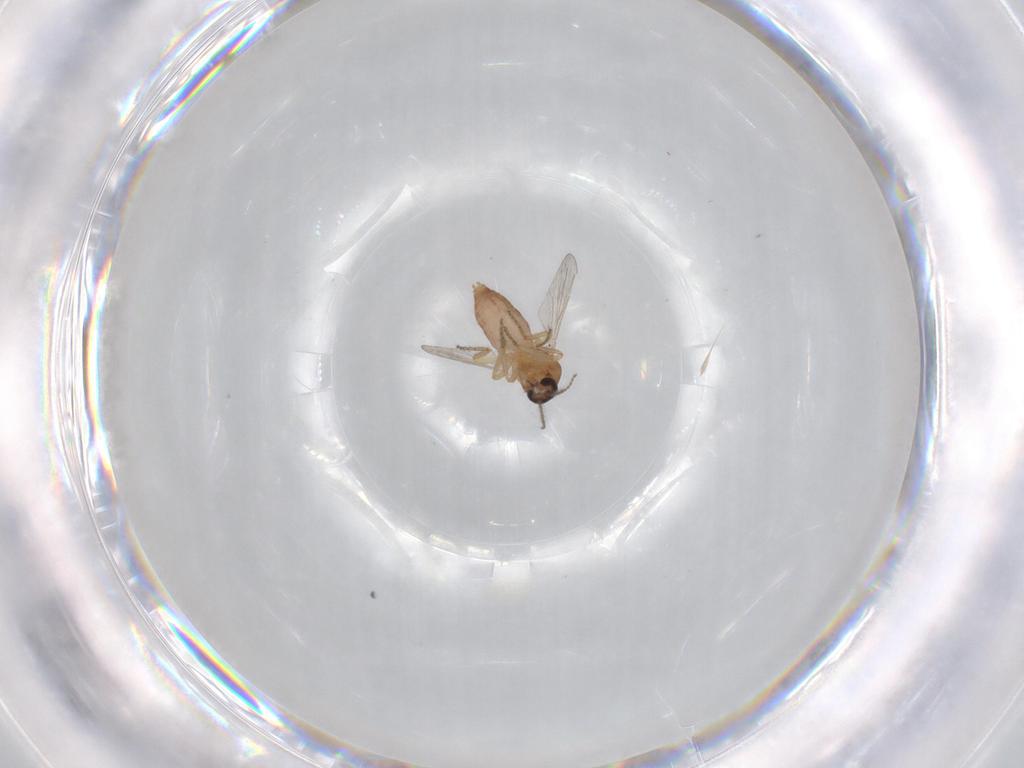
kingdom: Animalia
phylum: Arthropoda
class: Insecta
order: Diptera
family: Ceratopogonidae
